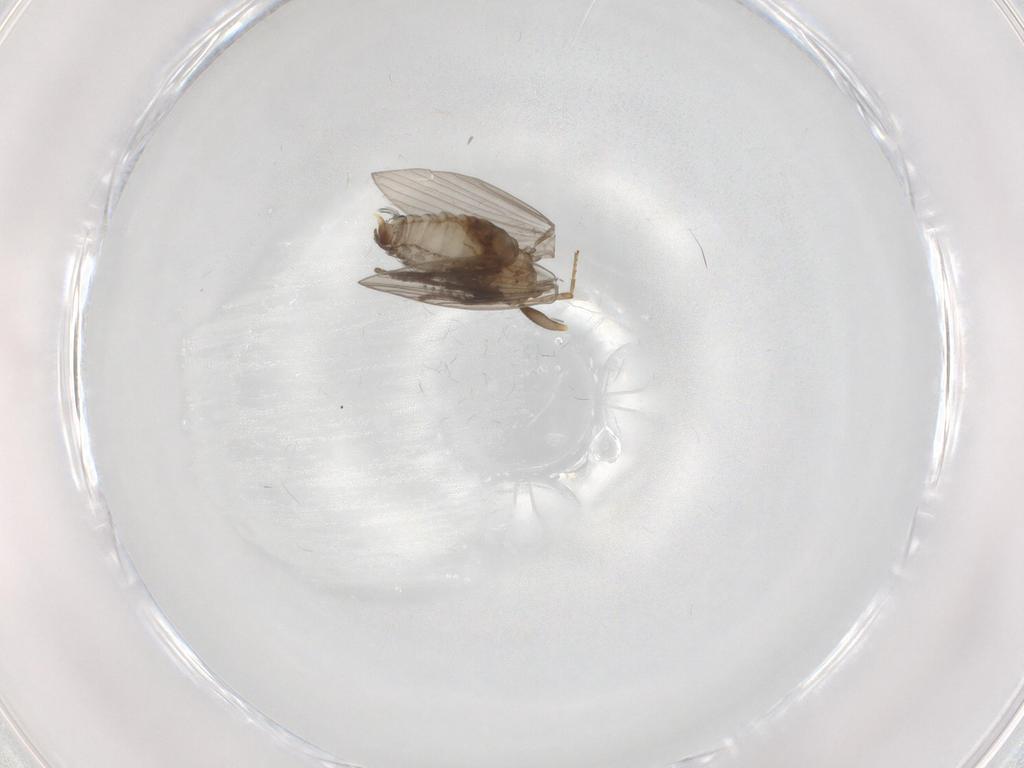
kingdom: Animalia
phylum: Arthropoda
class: Insecta
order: Diptera
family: Psychodidae
